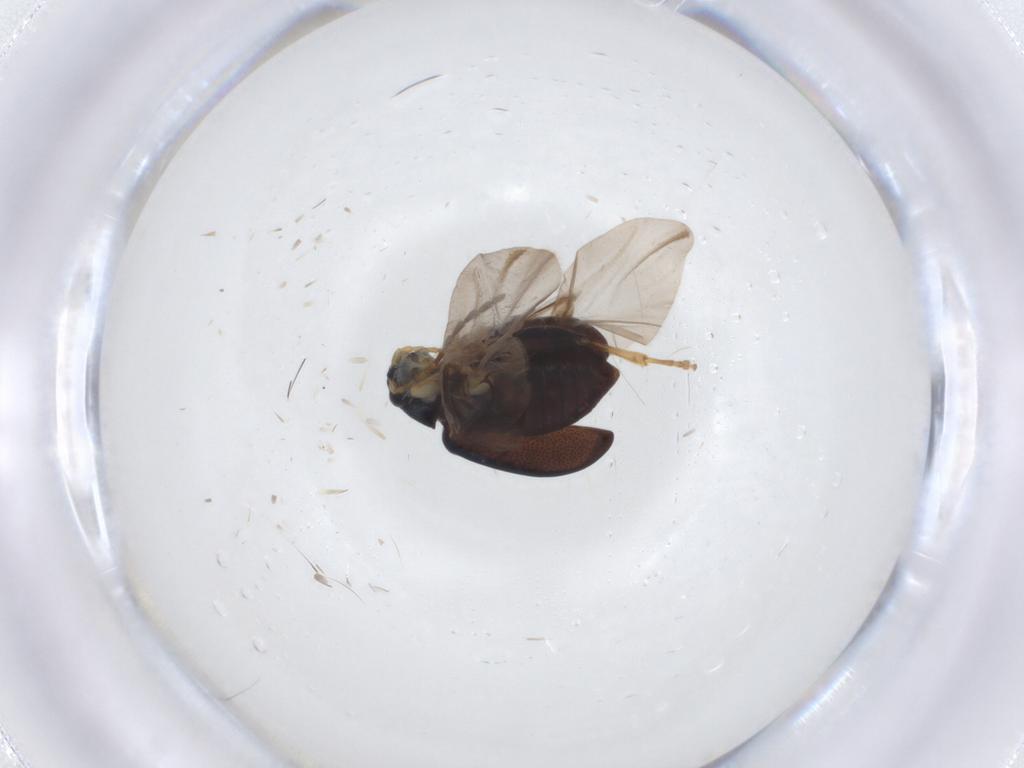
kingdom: Animalia
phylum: Arthropoda
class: Insecta
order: Coleoptera
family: Chrysomelidae
